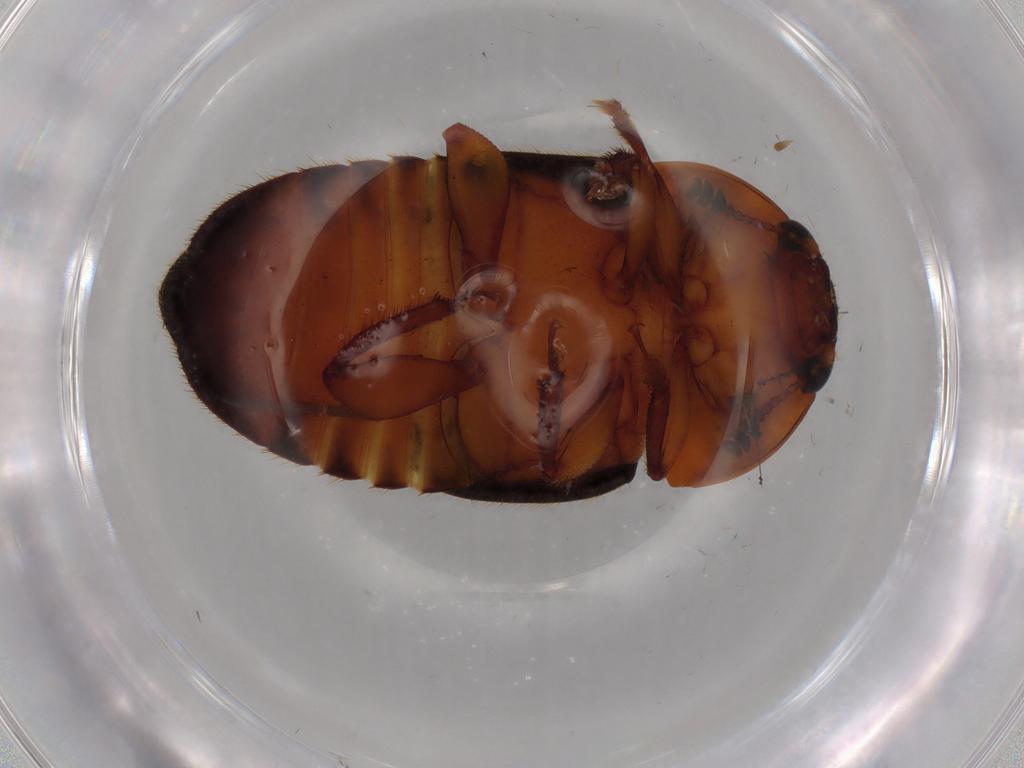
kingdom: Animalia
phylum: Arthropoda
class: Insecta
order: Coleoptera
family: Nitidulidae
